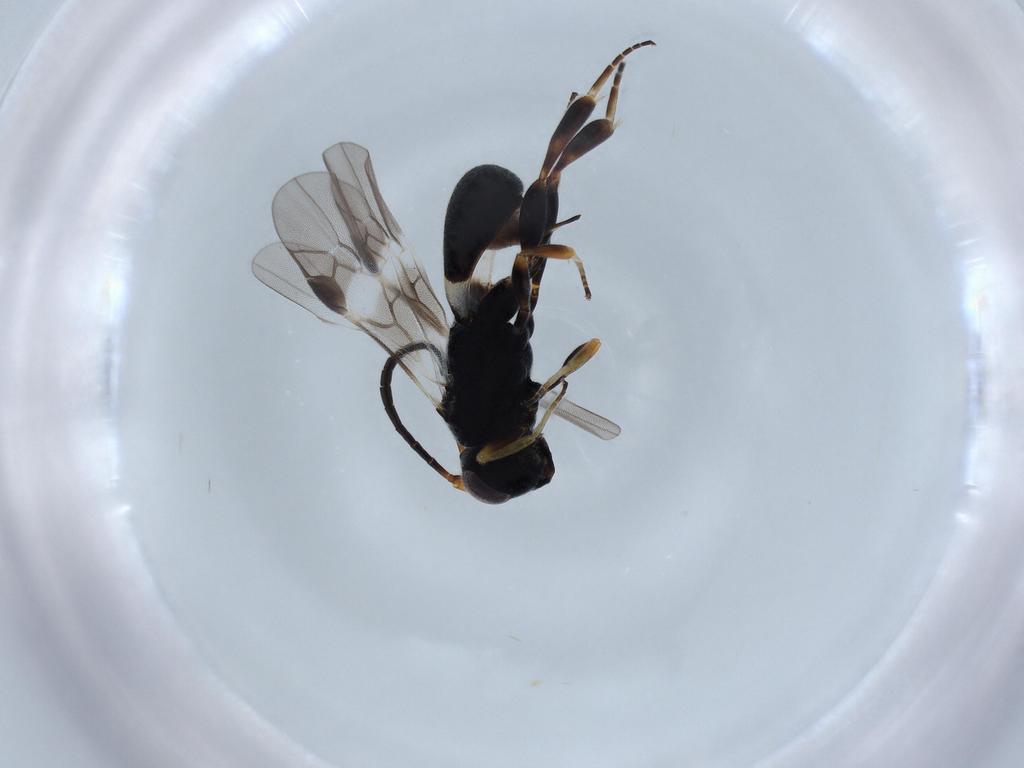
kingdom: Animalia
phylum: Arthropoda
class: Insecta
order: Hymenoptera
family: Braconidae
